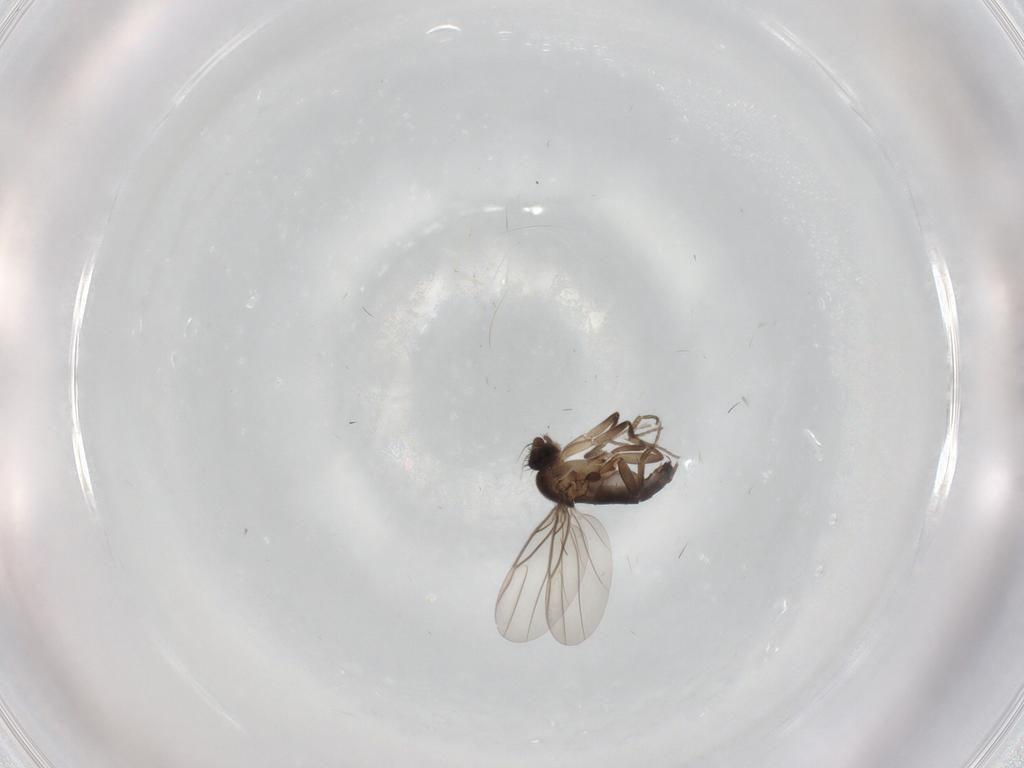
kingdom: Animalia
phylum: Arthropoda
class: Insecta
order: Diptera
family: Phoridae
